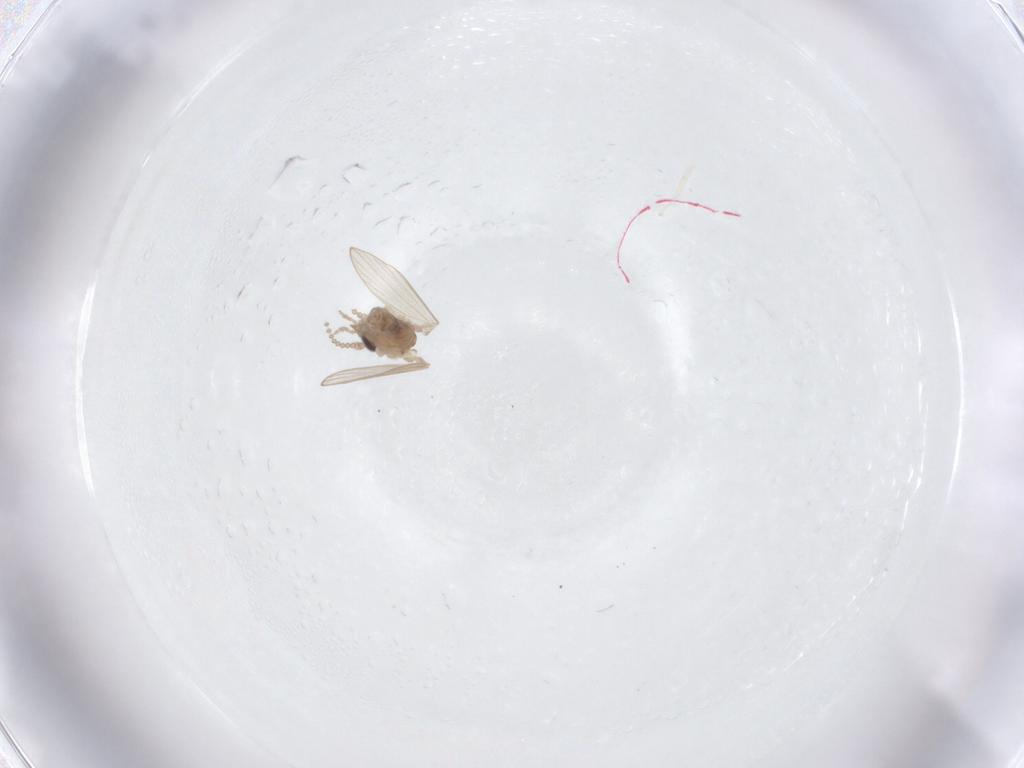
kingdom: Animalia
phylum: Arthropoda
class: Insecta
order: Diptera
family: Psychodidae
